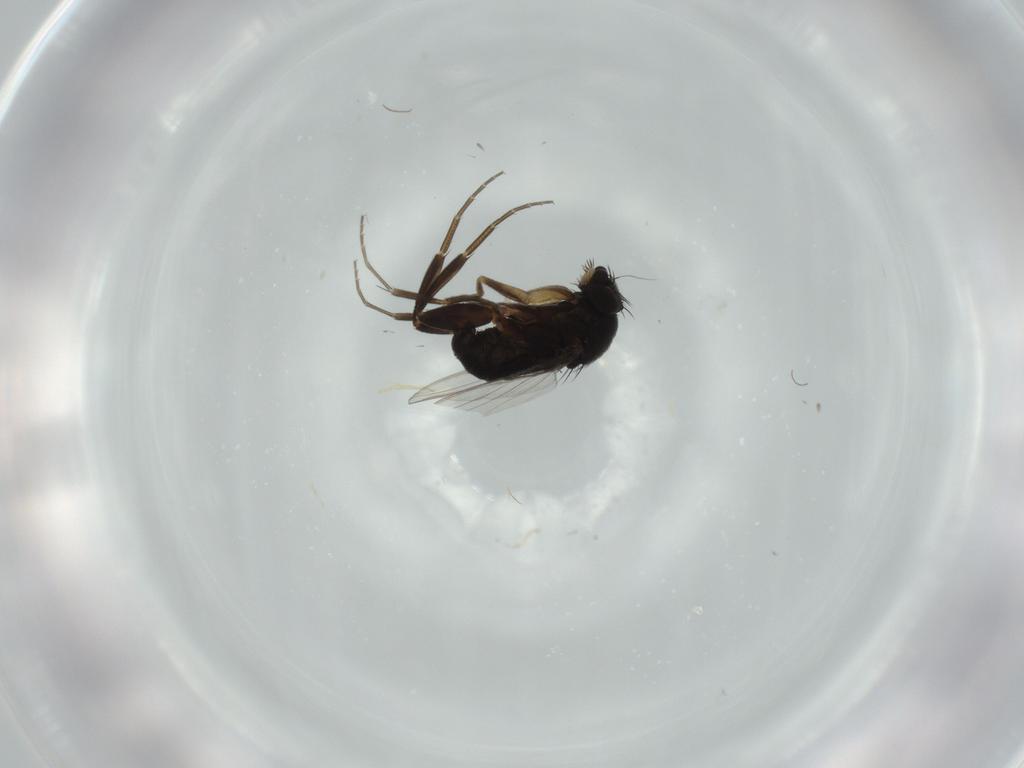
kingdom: Animalia
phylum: Arthropoda
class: Insecta
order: Diptera
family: Phoridae
